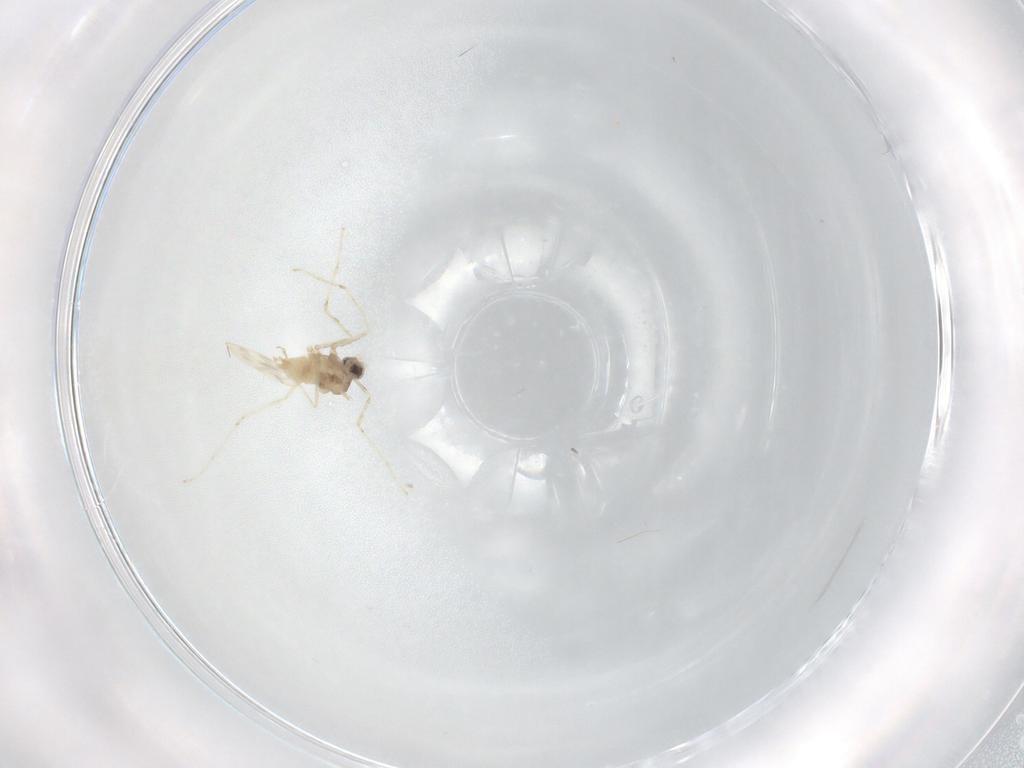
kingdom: Animalia
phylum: Arthropoda
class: Insecta
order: Diptera
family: Cecidomyiidae
